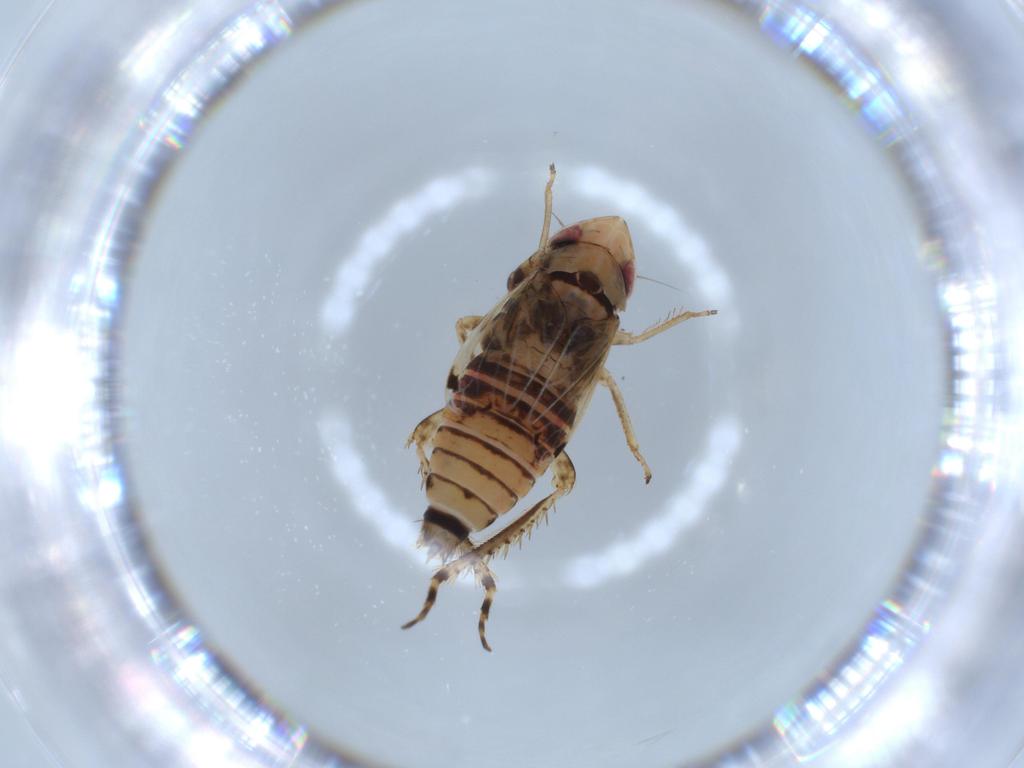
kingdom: Animalia
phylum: Arthropoda
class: Insecta
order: Hemiptera
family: Cicadellidae
